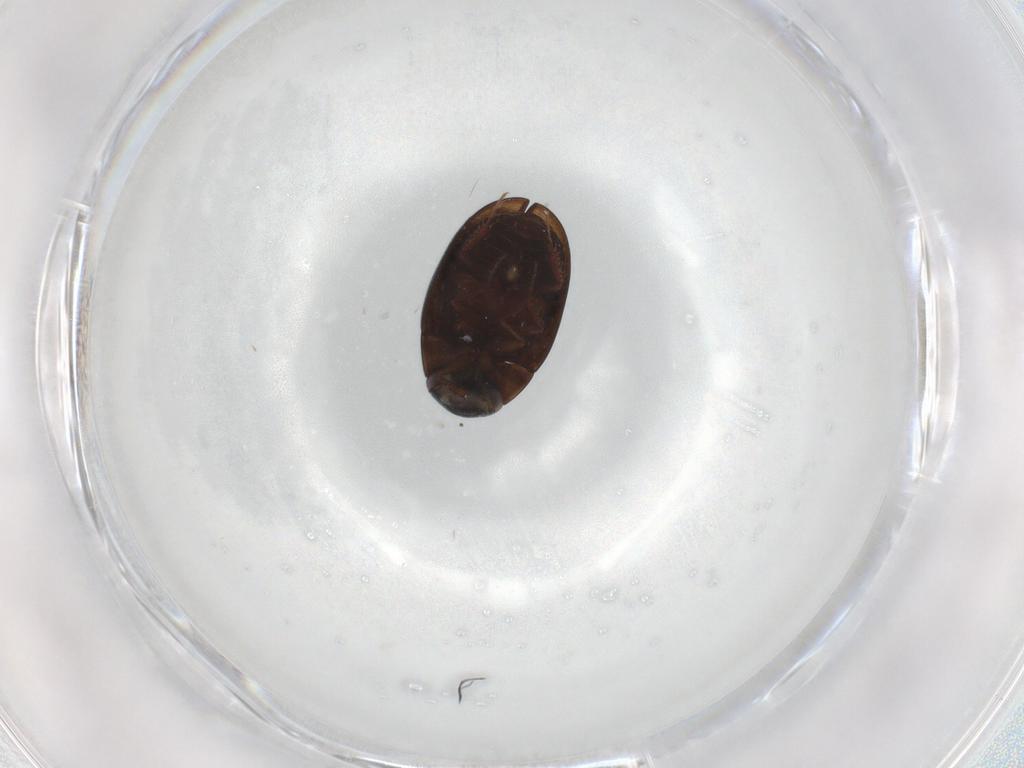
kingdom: Animalia
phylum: Arthropoda
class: Insecta
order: Coleoptera
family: Hydrophilidae
